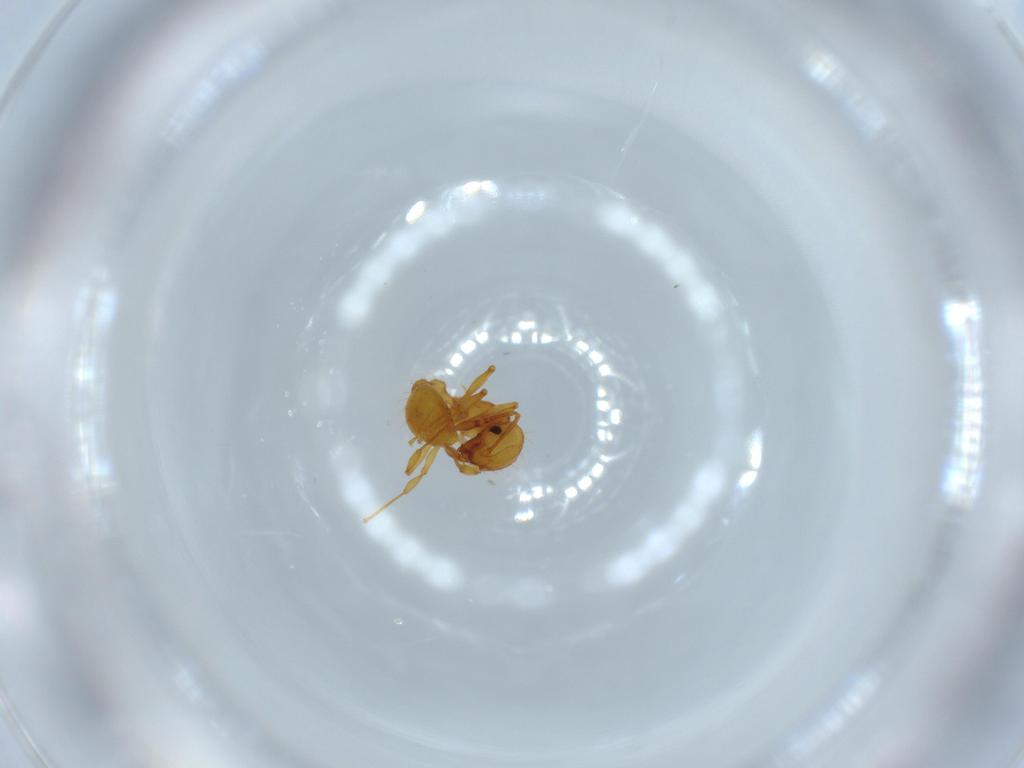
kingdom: Animalia
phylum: Arthropoda
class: Insecta
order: Hymenoptera
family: Formicidae
